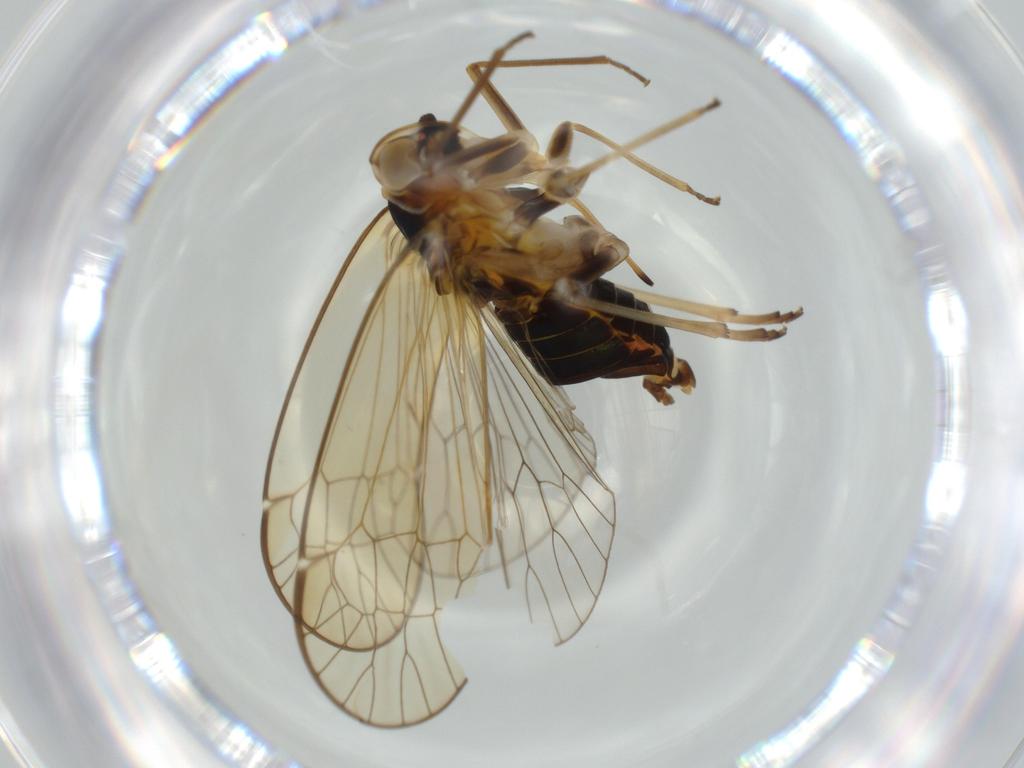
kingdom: Animalia
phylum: Arthropoda
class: Insecta
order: Hemiptera
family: Kinnaridae
